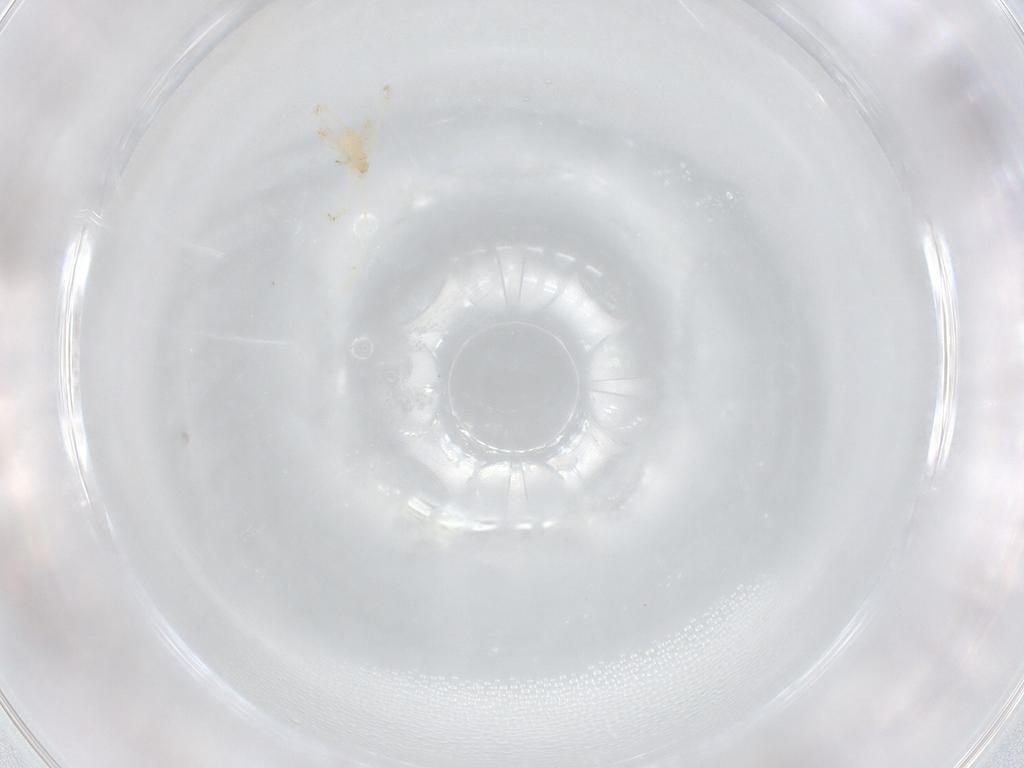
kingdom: Animalia
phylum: Arthropoda
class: Arachnida
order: Trombidiformes
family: Eupodidae
